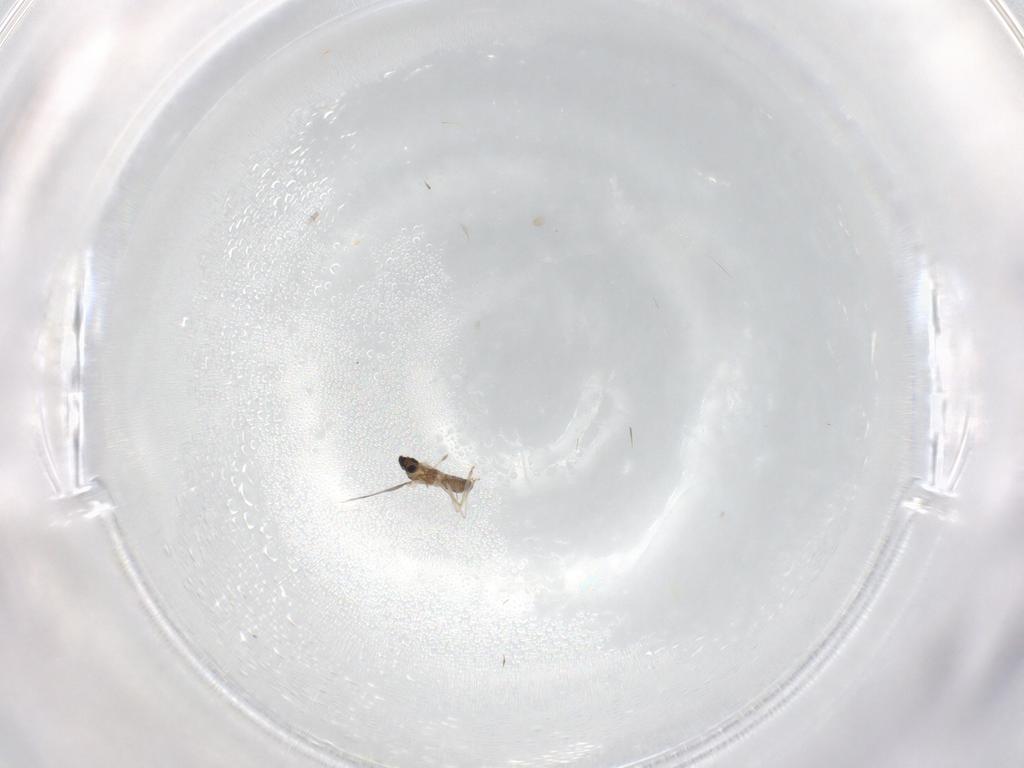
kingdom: Animalia
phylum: Arthropoda
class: Insecta
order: Diptera
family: Cecidomyiidae
